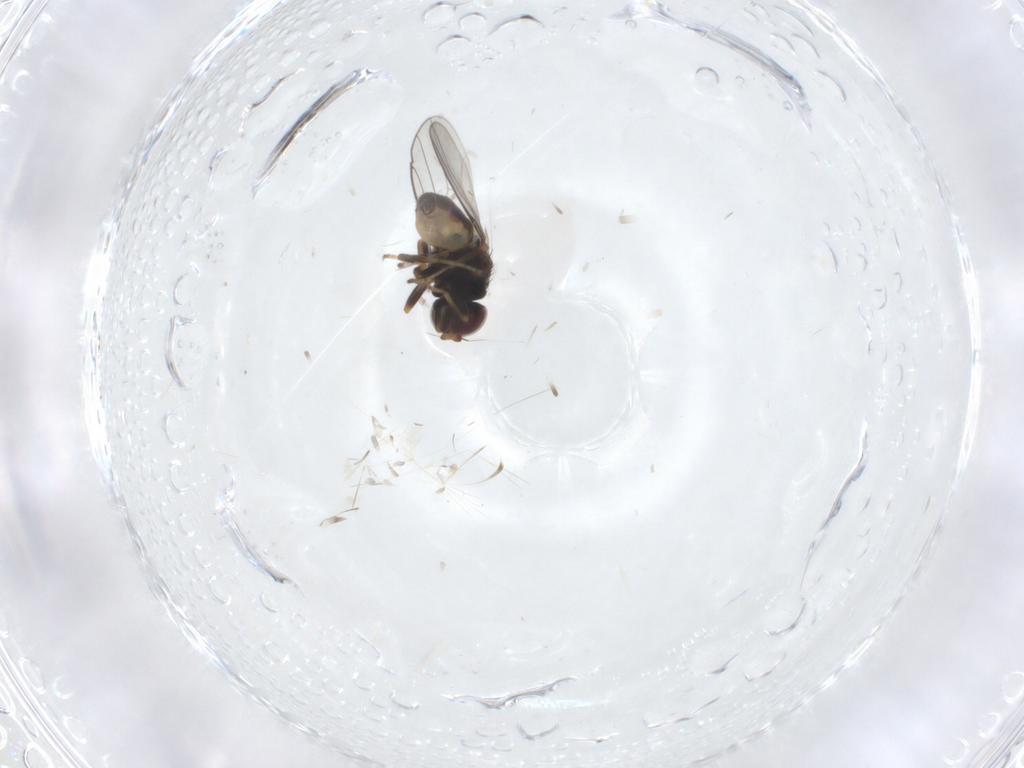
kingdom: Animalia
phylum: Arthropoda
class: Insecta
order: Diptera
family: Chloropidae
